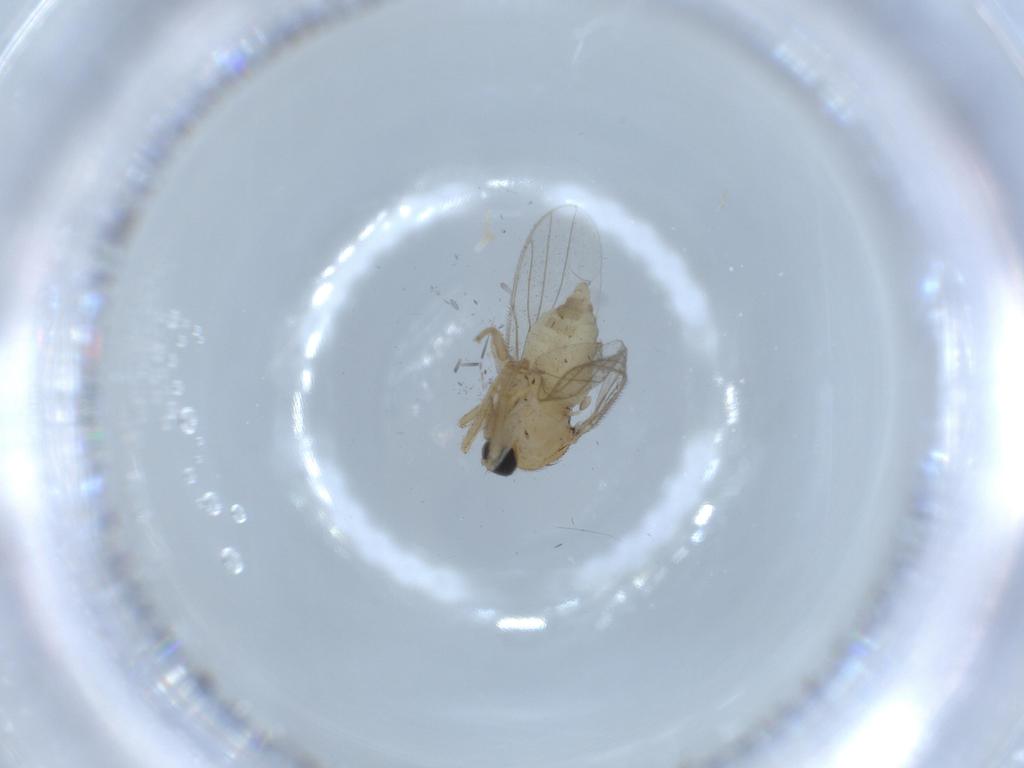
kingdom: Animalia
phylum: Arthropoda
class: Insecta
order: Diptera
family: Hybotidae
